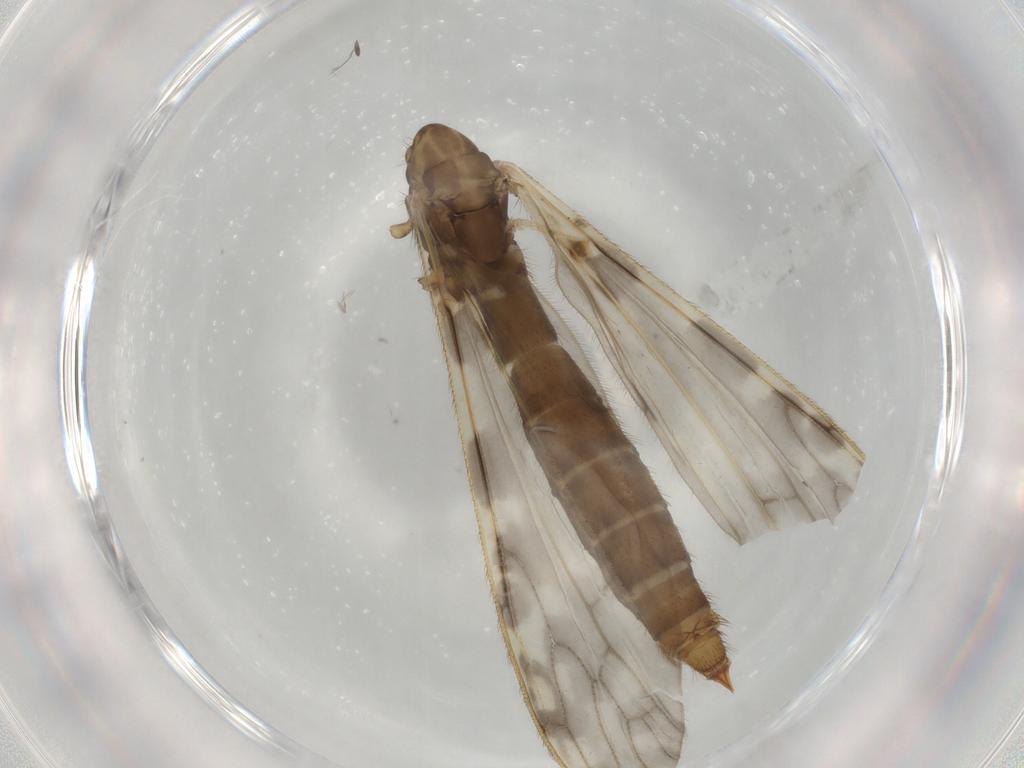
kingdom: Animalia
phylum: Arthropoda
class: Insecta
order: Diptera
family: Limoniidae
